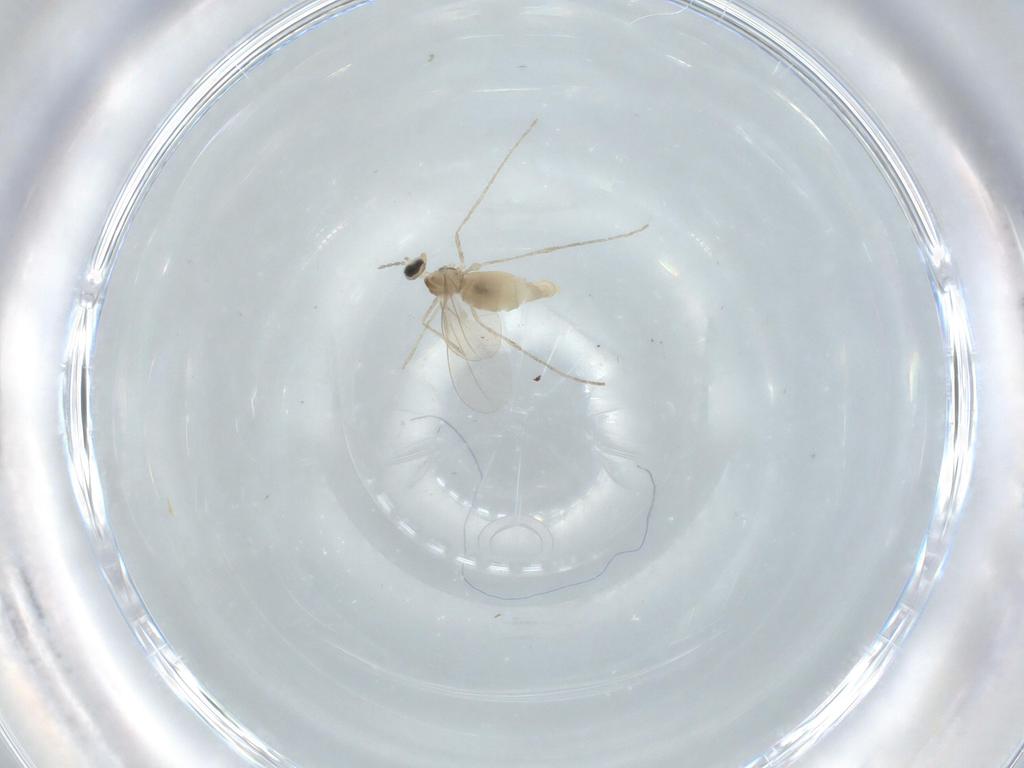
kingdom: Animalia
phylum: Arthropoda
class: Insecta
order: Diptera
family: Cecidomyiidae
